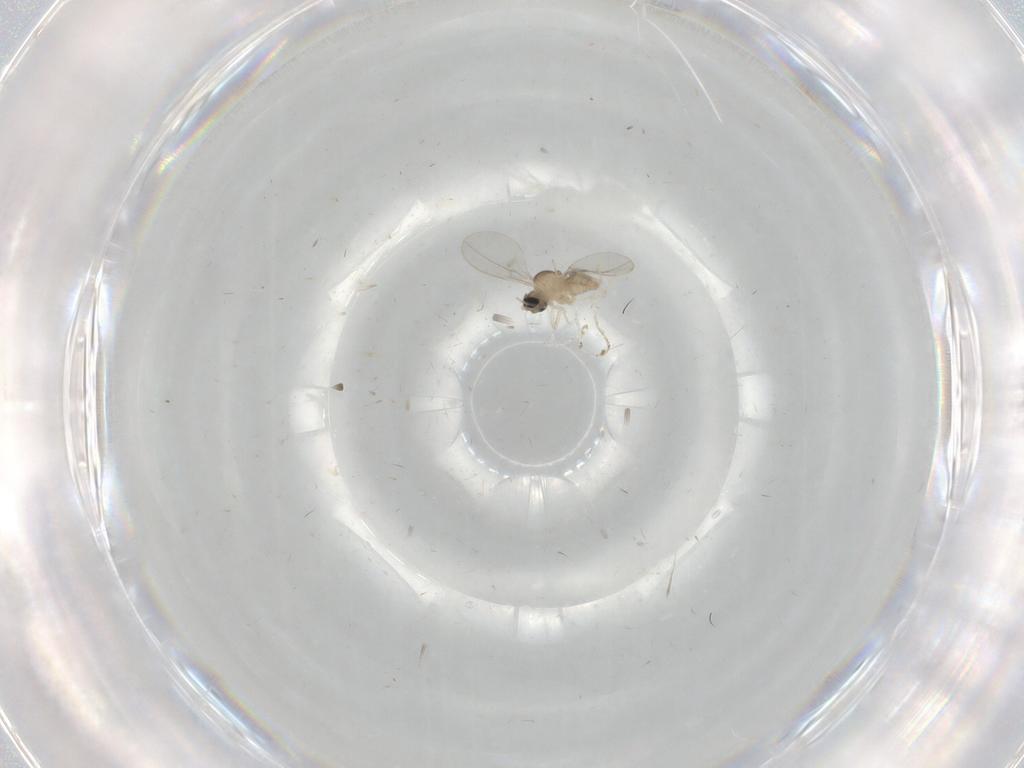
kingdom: Animalia
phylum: Arthropoda
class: Insecta
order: Diptera
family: Cecidomyiidae
